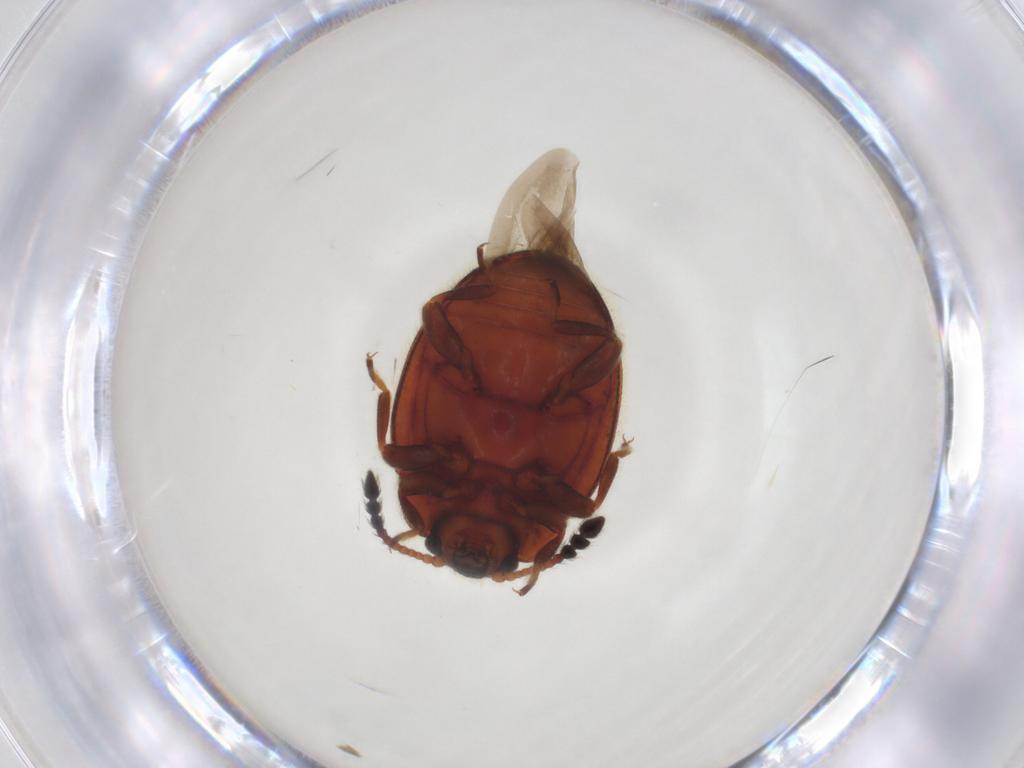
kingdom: Animalia
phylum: Arthropoda
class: Insecta
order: Coleoptera
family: Endomychidae
